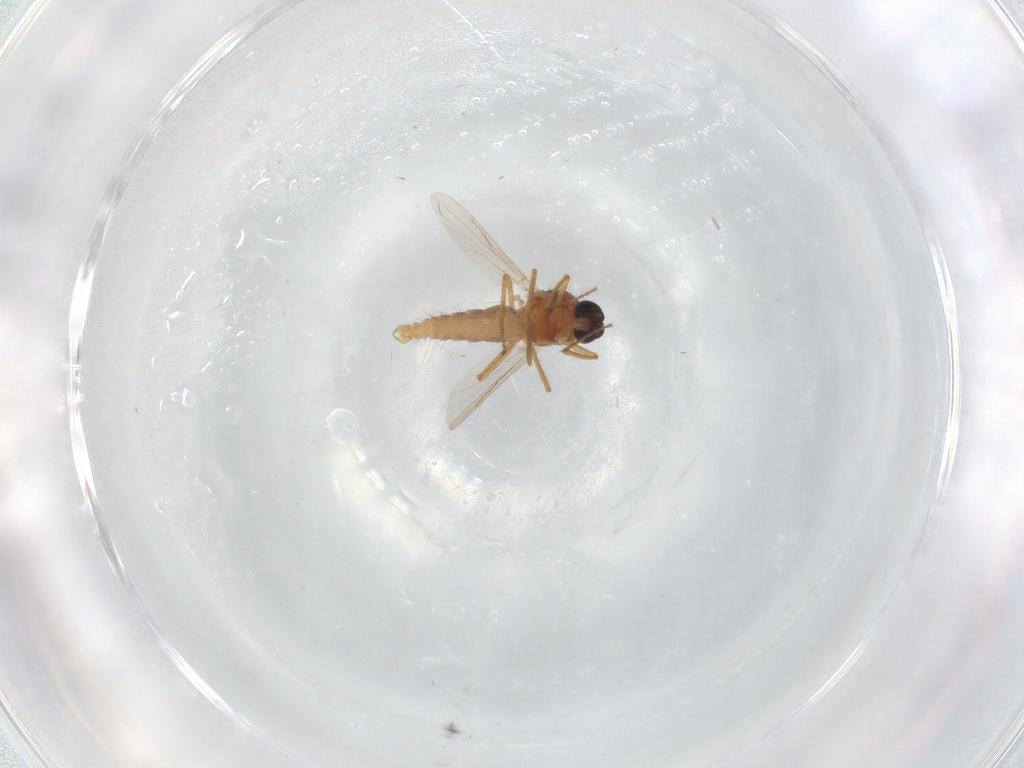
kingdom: Animalia
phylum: Arthropoda
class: Insecta
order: Diptera
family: Chironomidae
